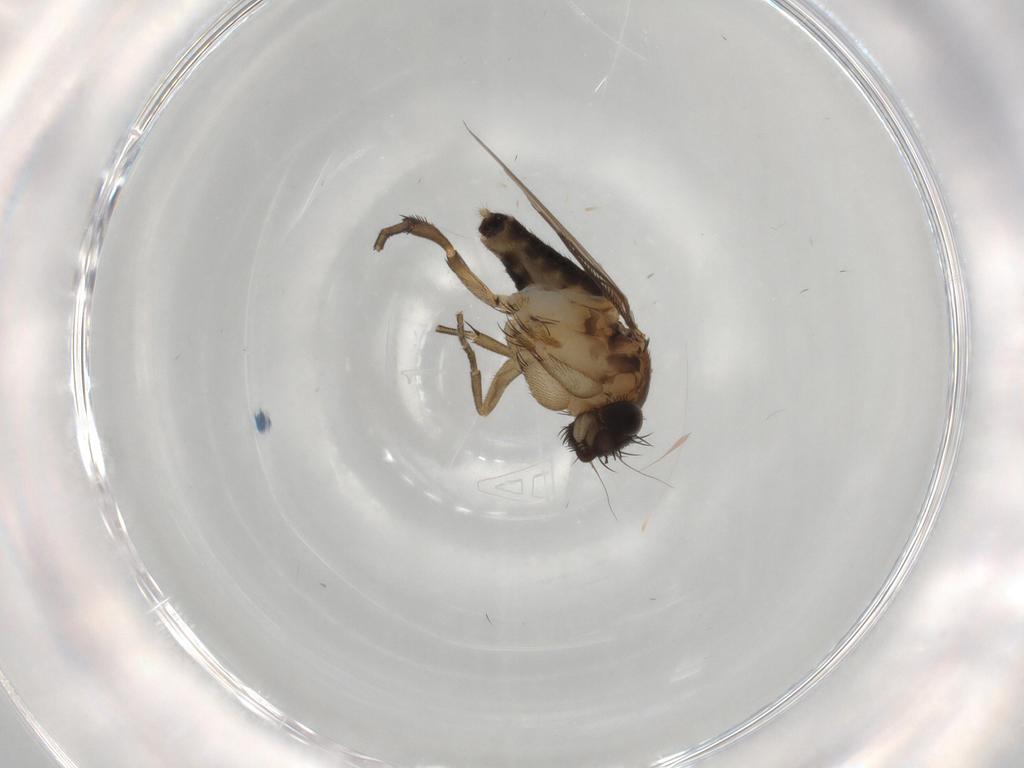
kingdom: Animalia
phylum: Arthropoda
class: Insecta
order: Diptera
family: Phoridae
